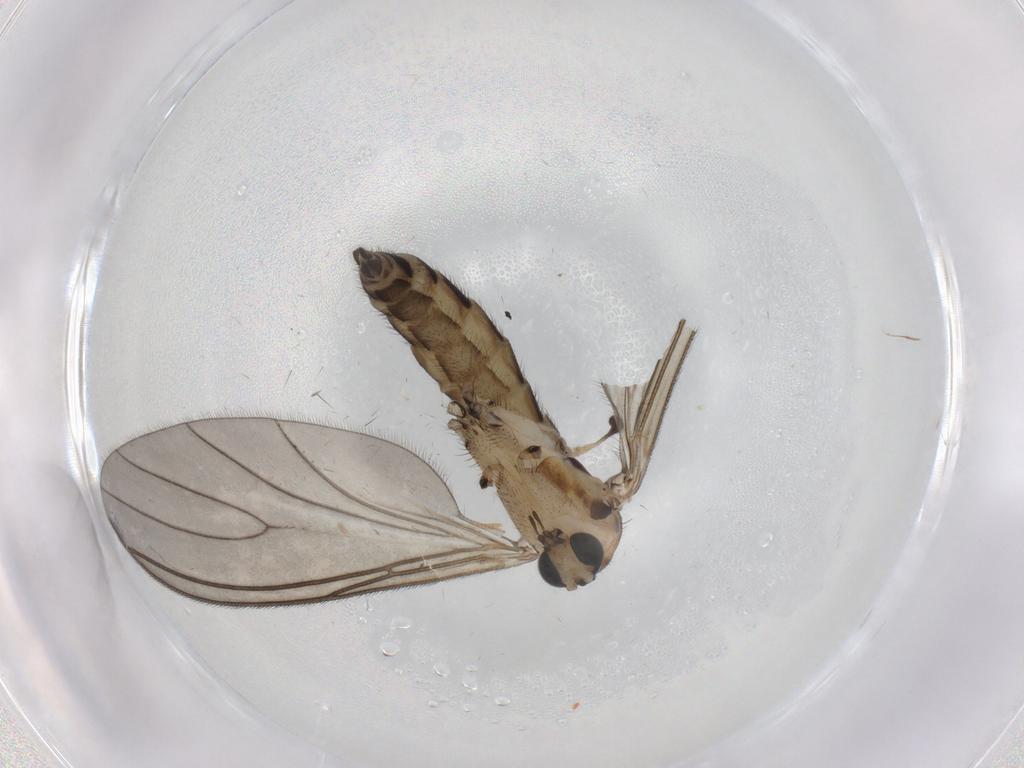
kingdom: Animalia
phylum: Arthropoda
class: Insecta
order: Diptera
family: Sciaridae
